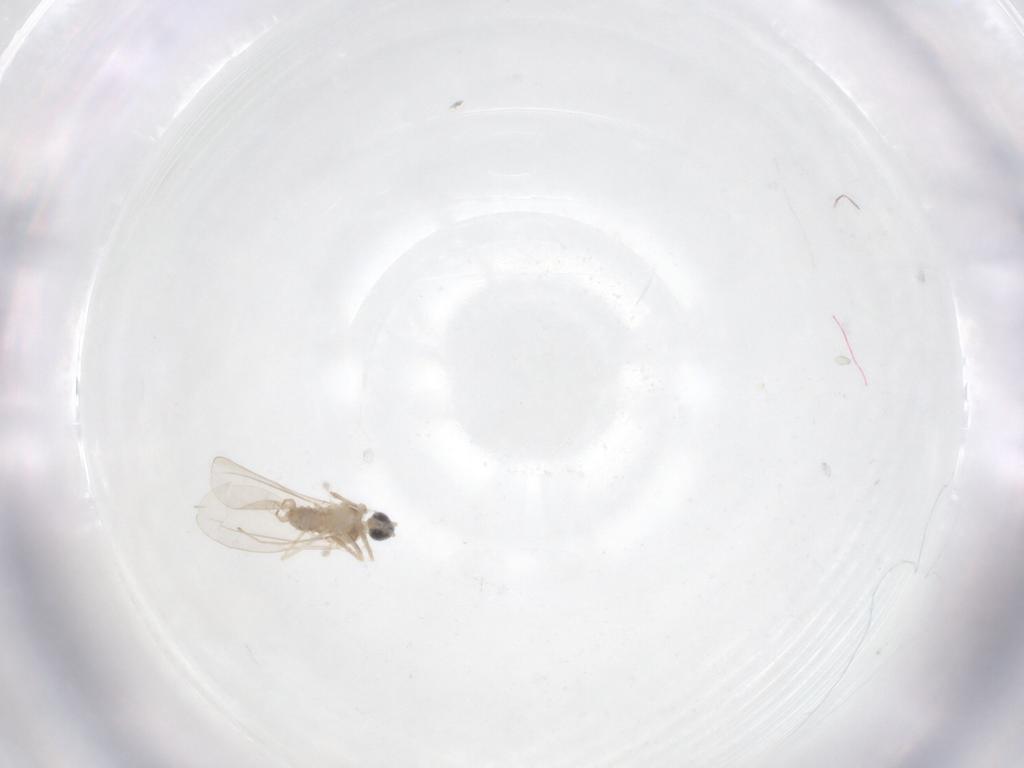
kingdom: Animalia
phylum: Arthropoda
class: Insecta
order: Diptera
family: Cecidomyiidae
